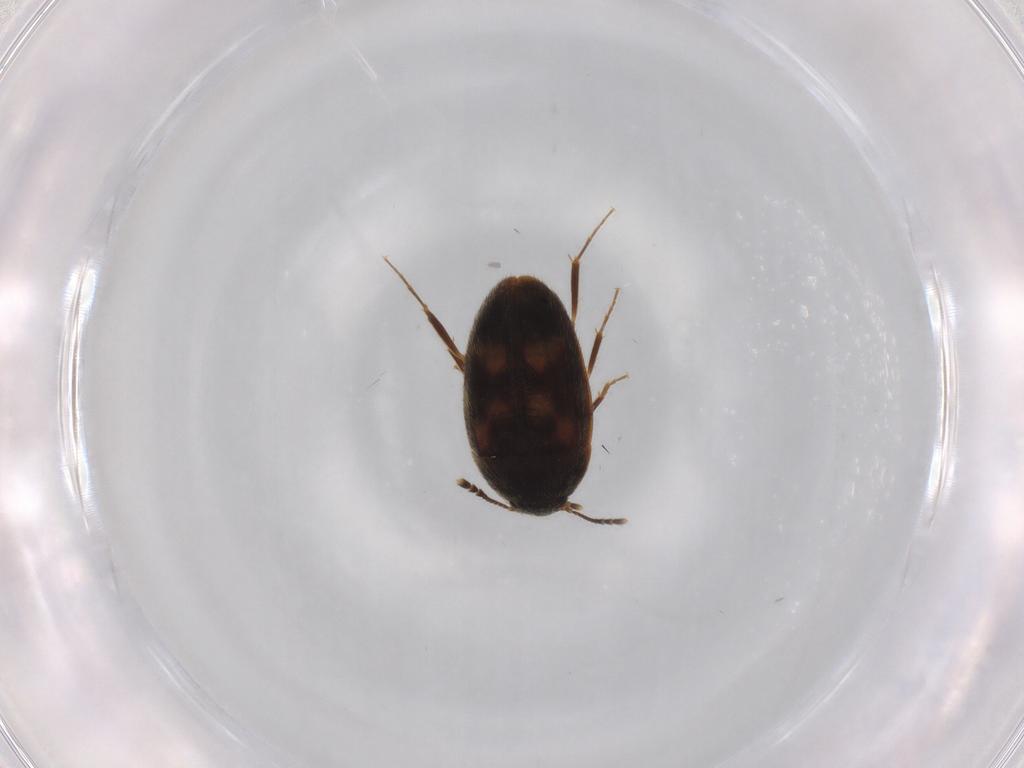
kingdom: Animalia
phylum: Arthropoda
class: Insecta
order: Coleoptera
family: Mycetophagidae
